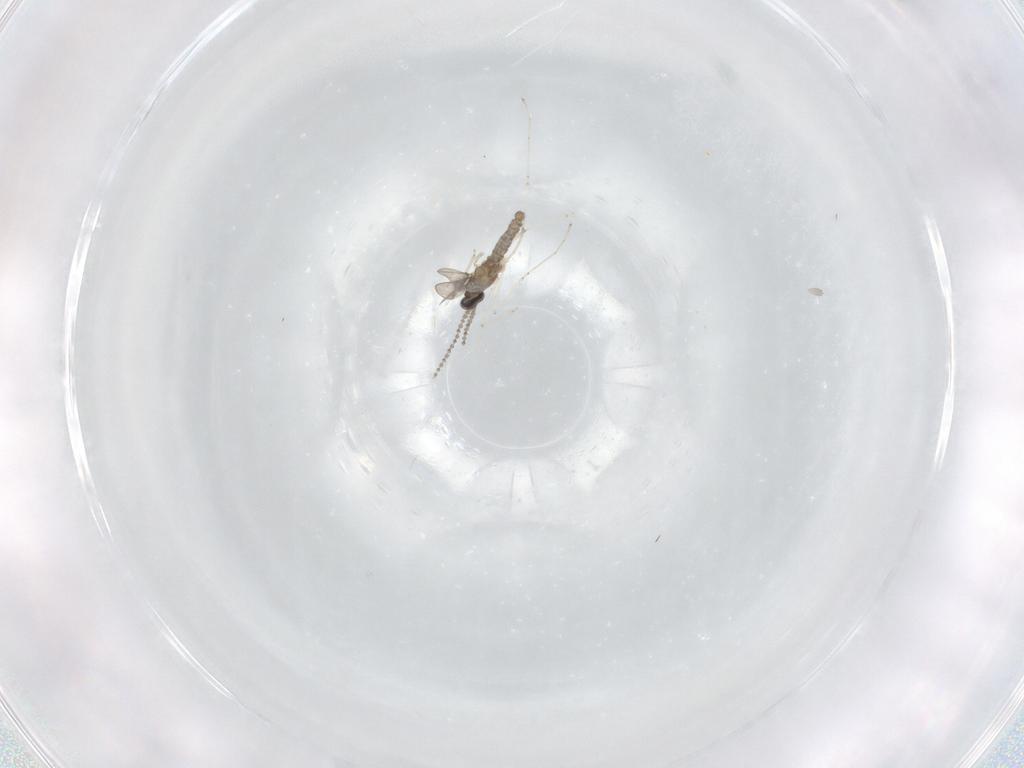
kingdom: Animalia
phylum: Arthropoda
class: Insecta
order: Diptera
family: Cecidomyiidae
